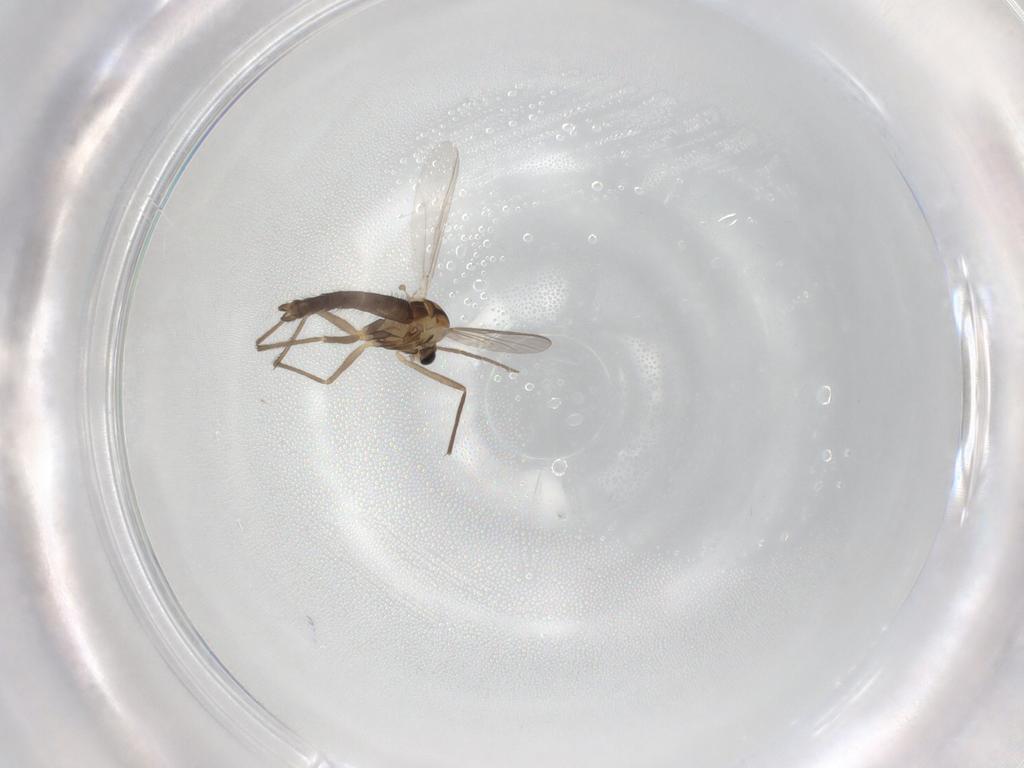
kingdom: Animalia
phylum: Arthropoda
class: Insecta
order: Diptera
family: Chironomidae
